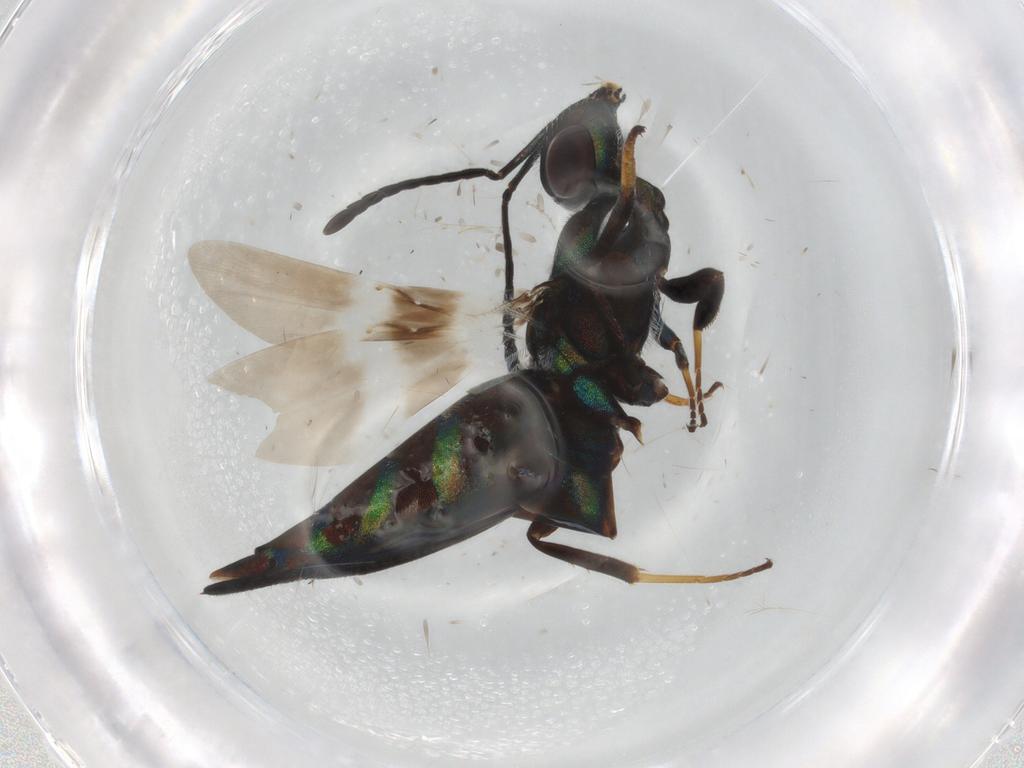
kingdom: Animalia
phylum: Arthropoda
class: Insecta
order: Hymenoptera
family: Eupelmidae
